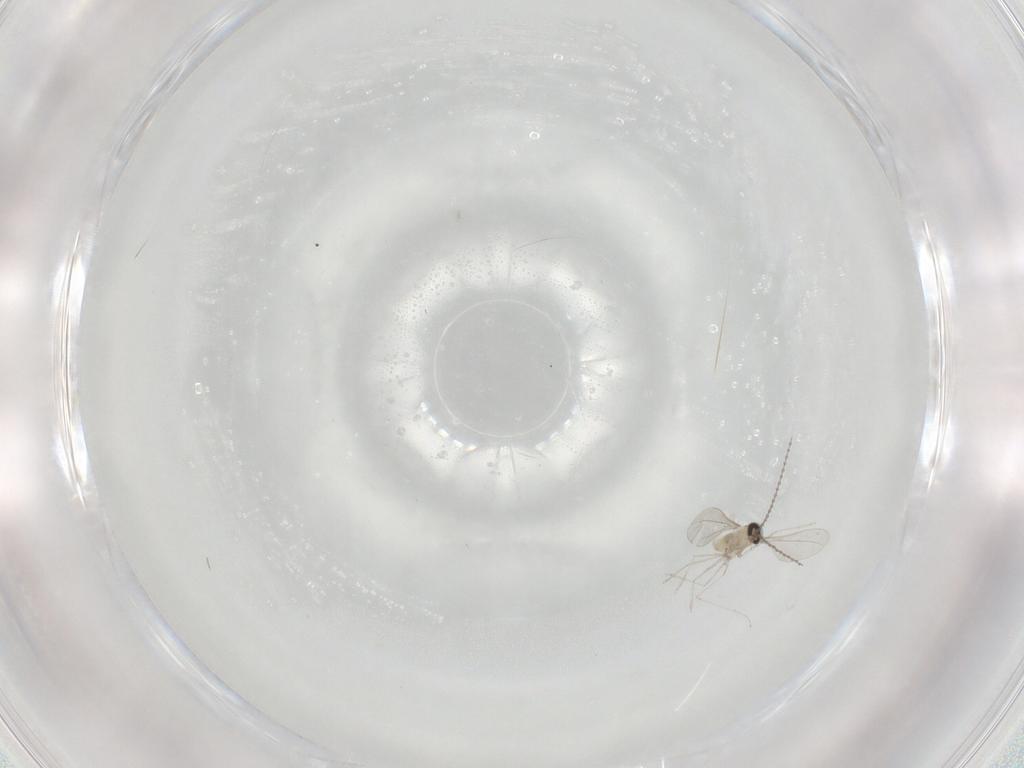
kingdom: Animalia
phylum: Arthropoda
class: Insecta
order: Diptera
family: Cecidomyiidae
